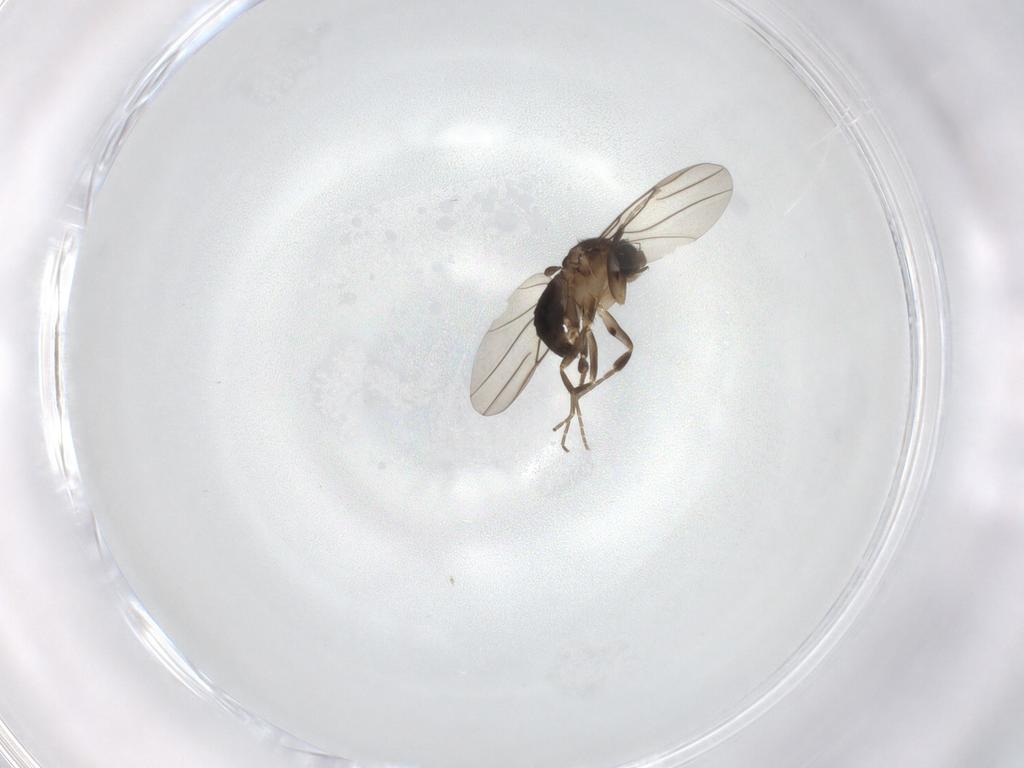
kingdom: Animalia
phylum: Arthropoda
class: Insecta
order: Diptera
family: Phoridae
